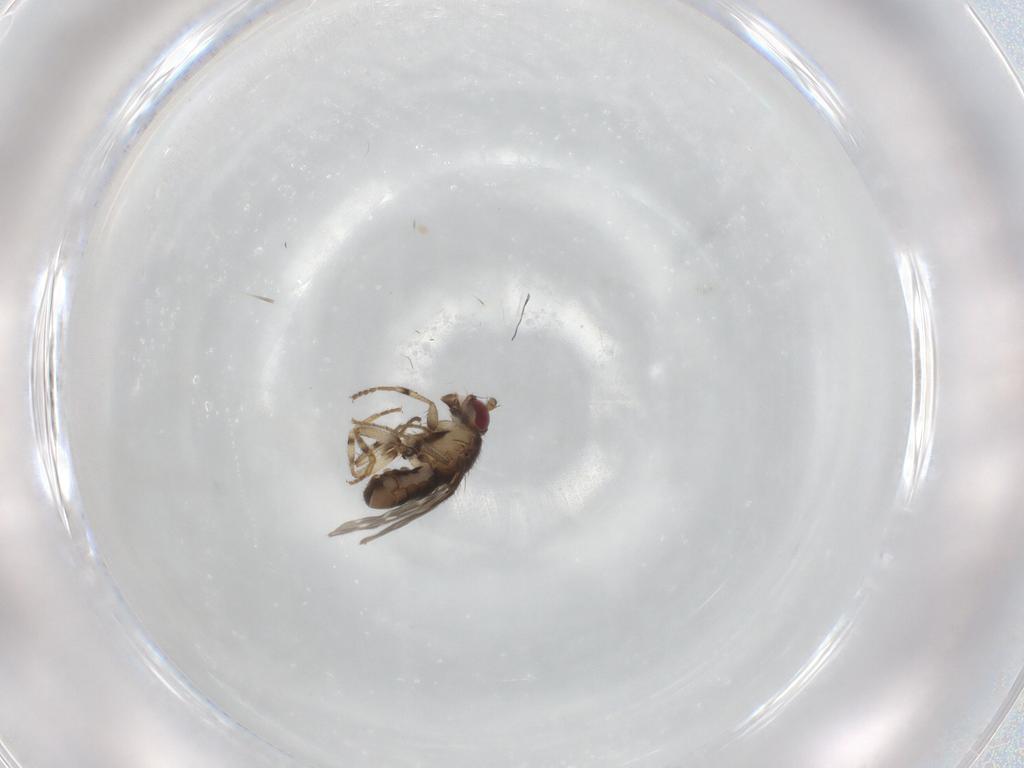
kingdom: Animalia
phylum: Arthropoda
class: Insecta
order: Diptera
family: Sphaeroceridae
